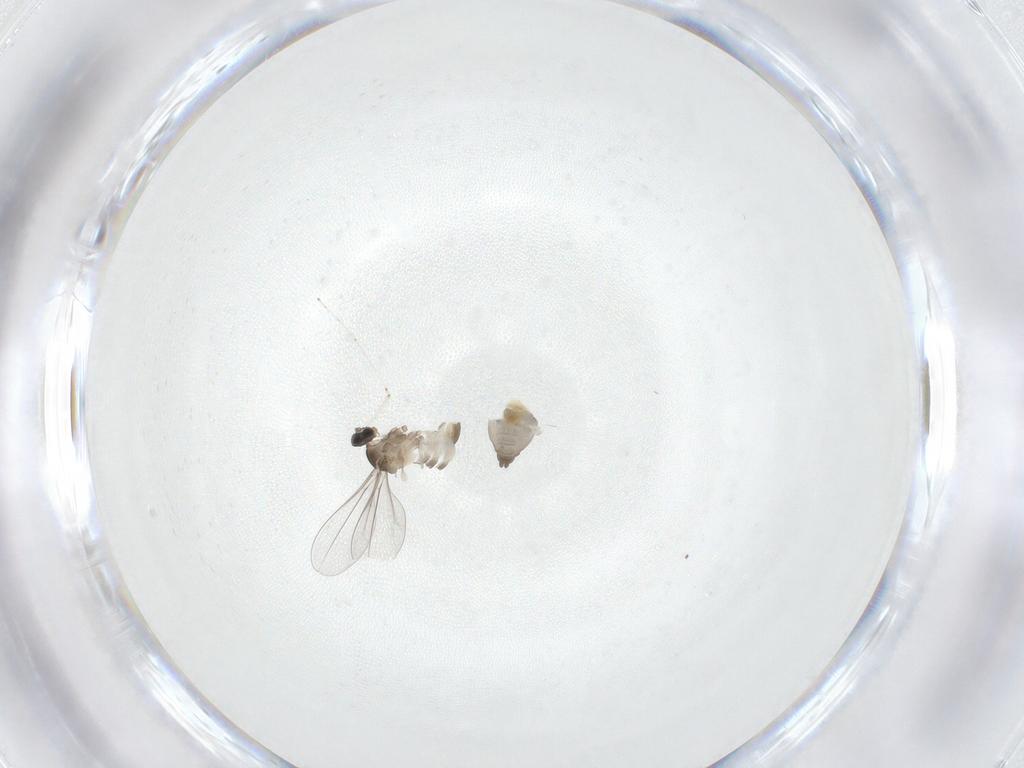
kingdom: Animalia
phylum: Arthropoda
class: Insecta
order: Diptera
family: Cecidomyiidae
